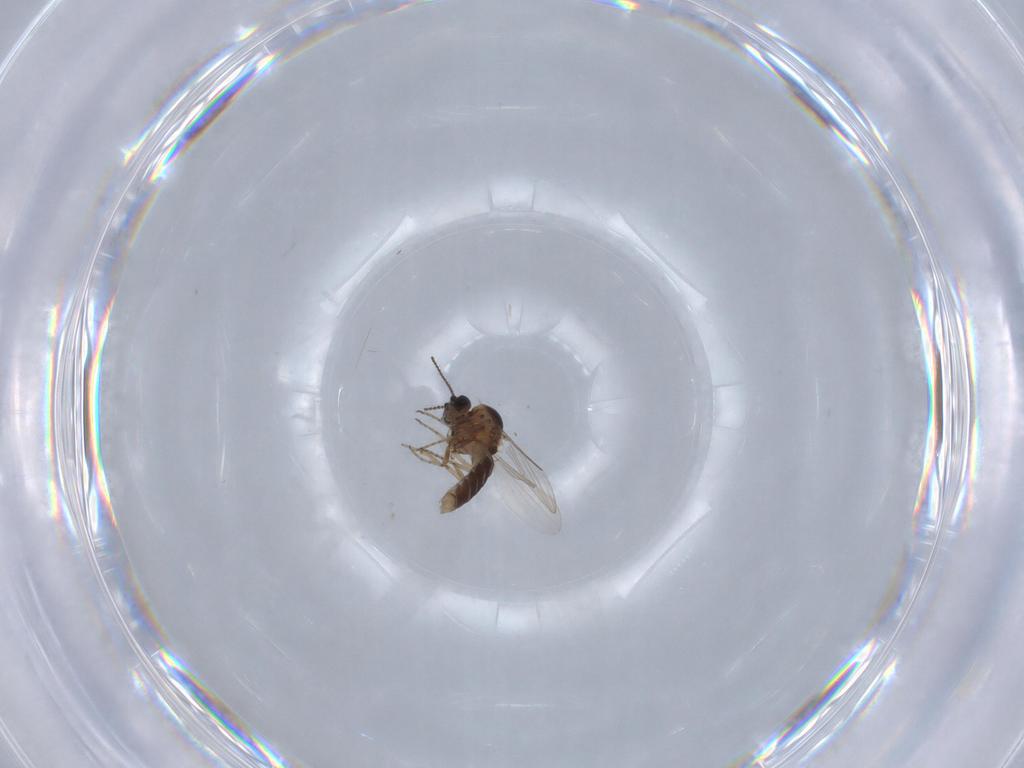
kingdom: Animalia
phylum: Arthropoda
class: Insecta
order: Diptera
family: Ceratopogonidae
